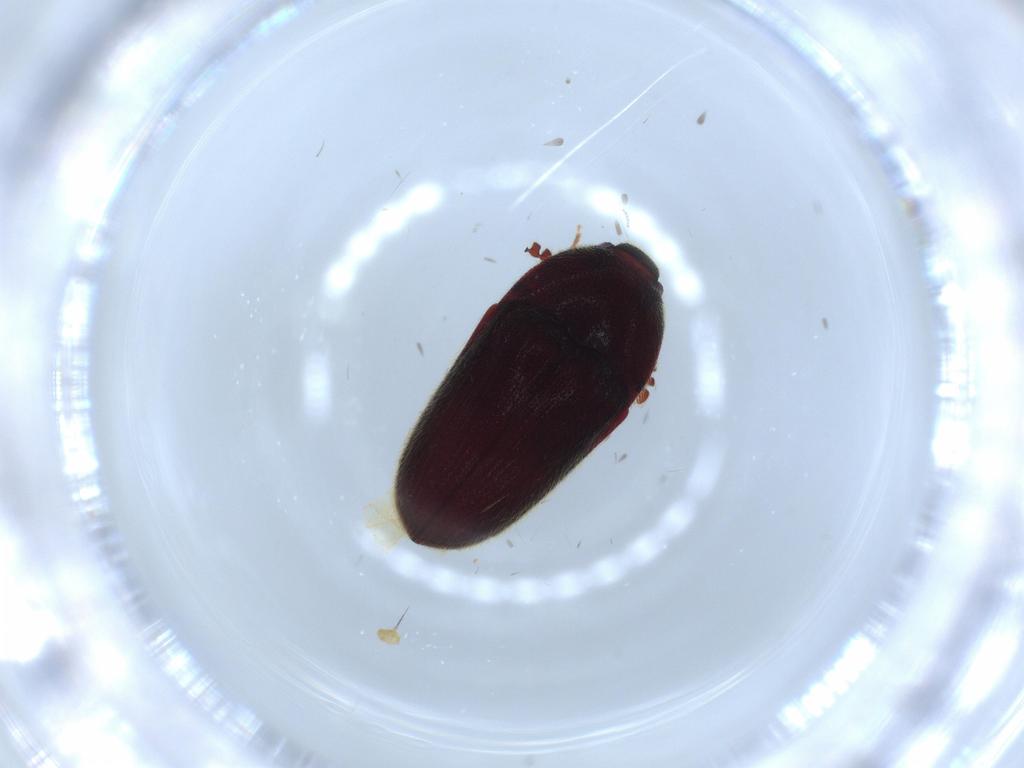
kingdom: Animalia
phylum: Arthropoda
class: Insecta
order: Coleoptera
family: Throscidae
